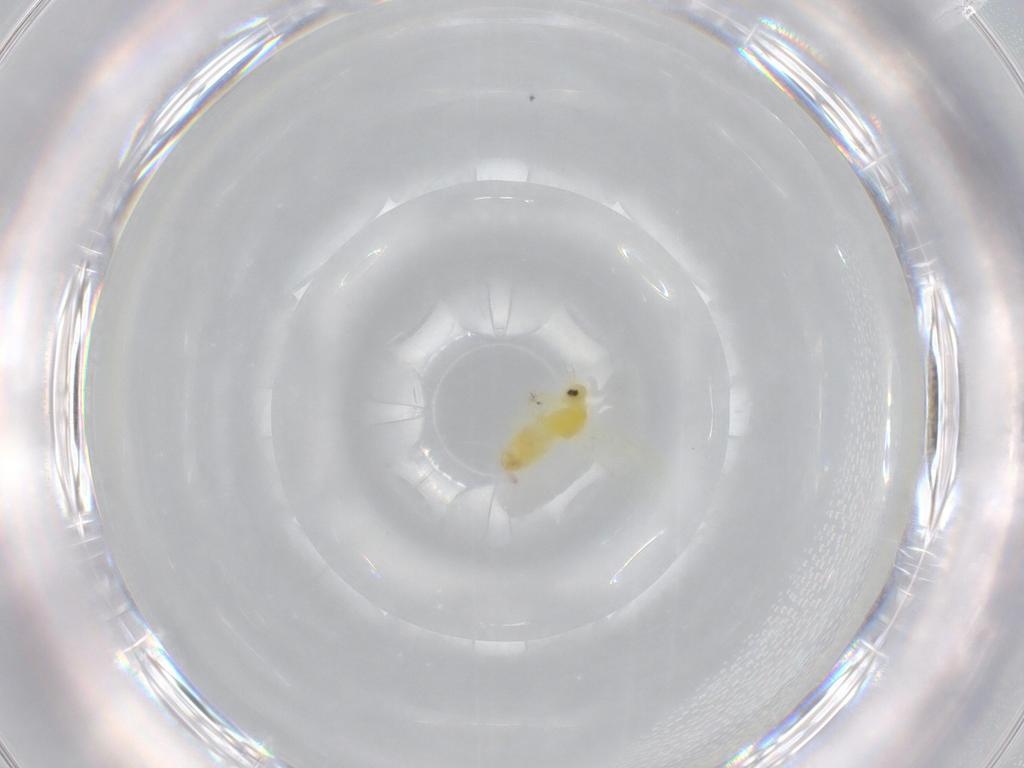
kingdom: Animalia
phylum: Arthropoda
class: Insecta
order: Hemiptera
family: Aleyrodidae
